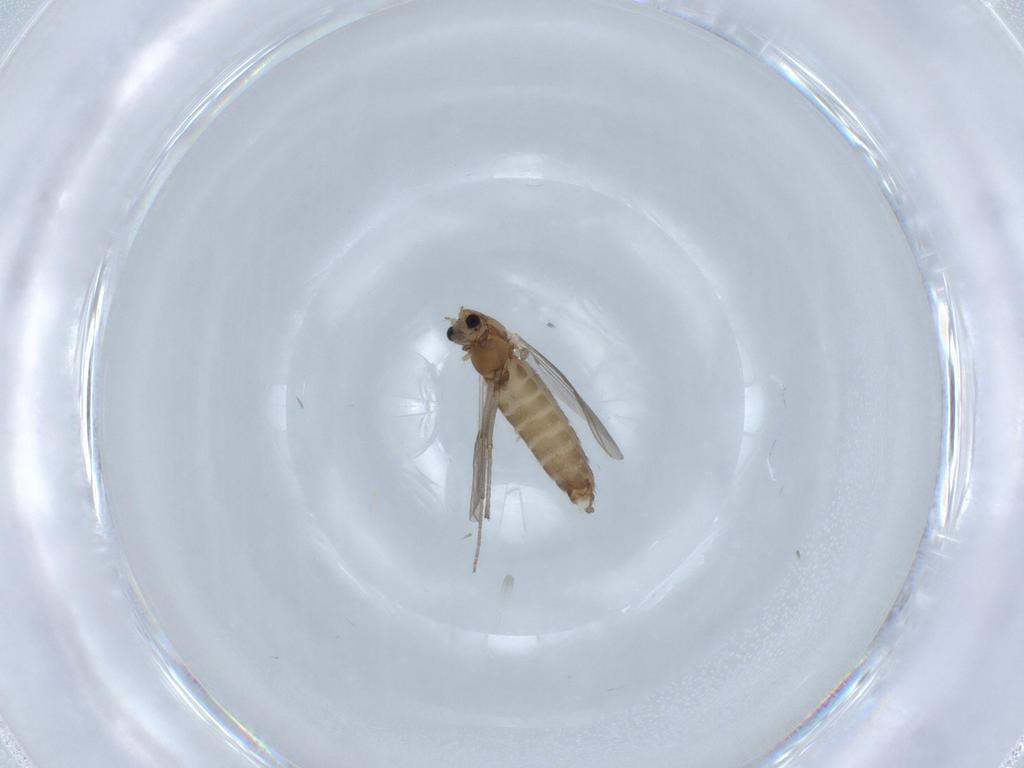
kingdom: Animalia
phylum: Arthropoda
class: Insecta
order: Diptera
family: Chironomidae
